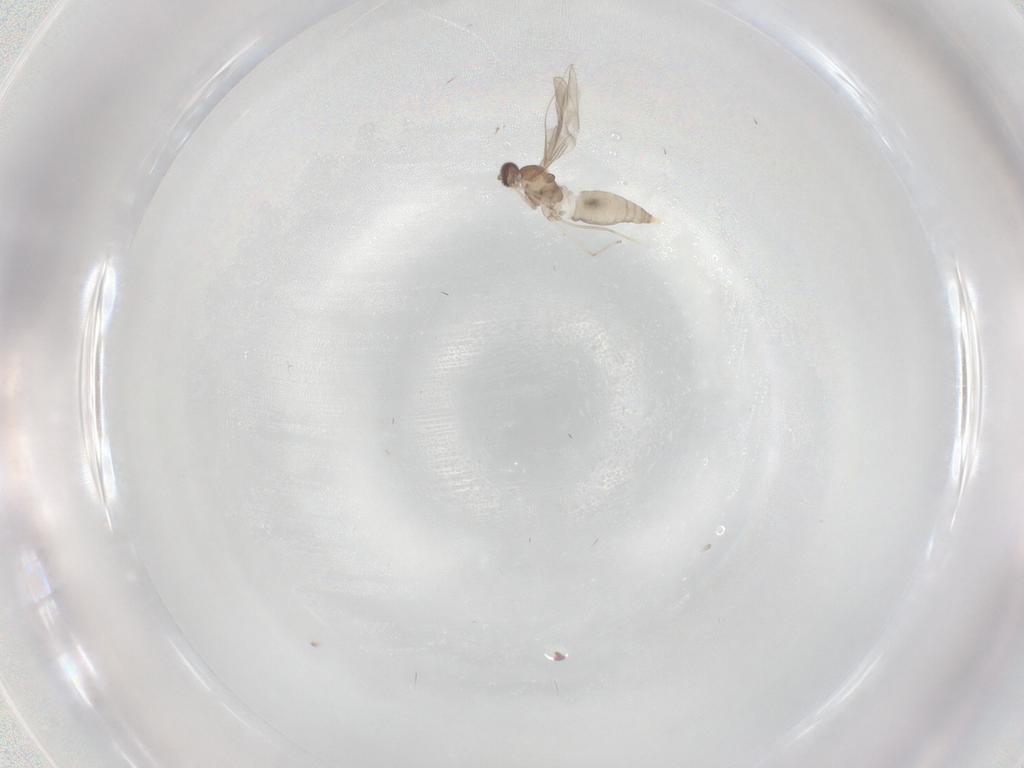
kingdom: Animalia
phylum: Arthropoda
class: Insecta
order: Diptera
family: Cecidomyiidae
